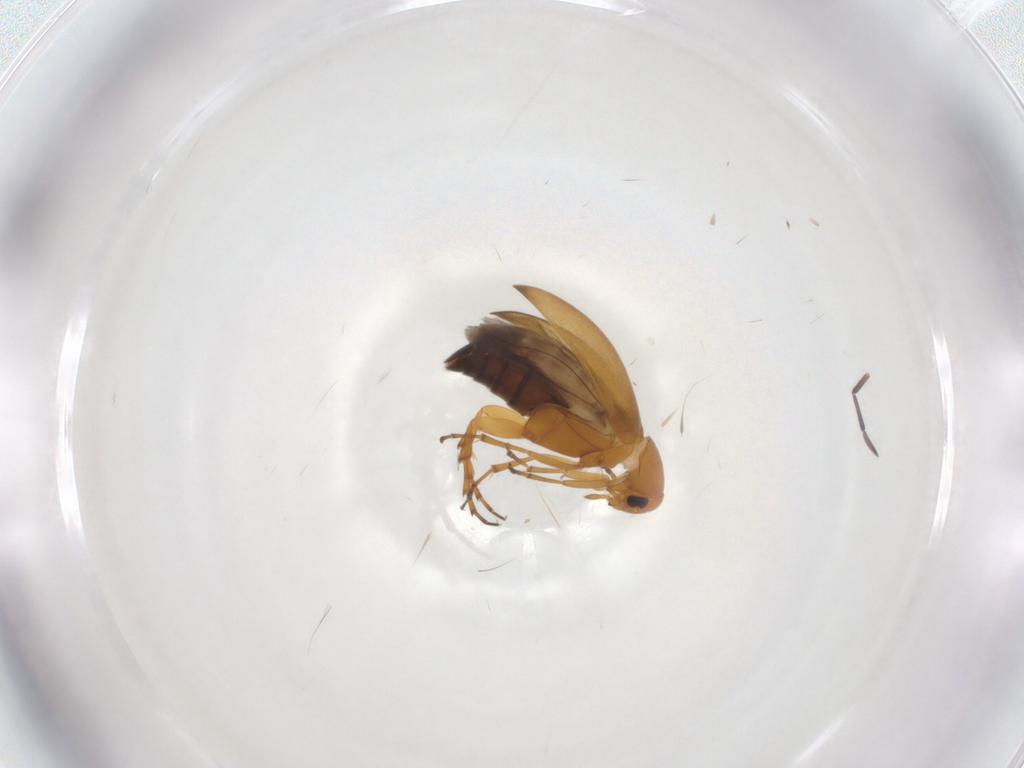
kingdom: Animalia
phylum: Arthropoda
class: Insecta
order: Coleoptera
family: Scraptiidae
